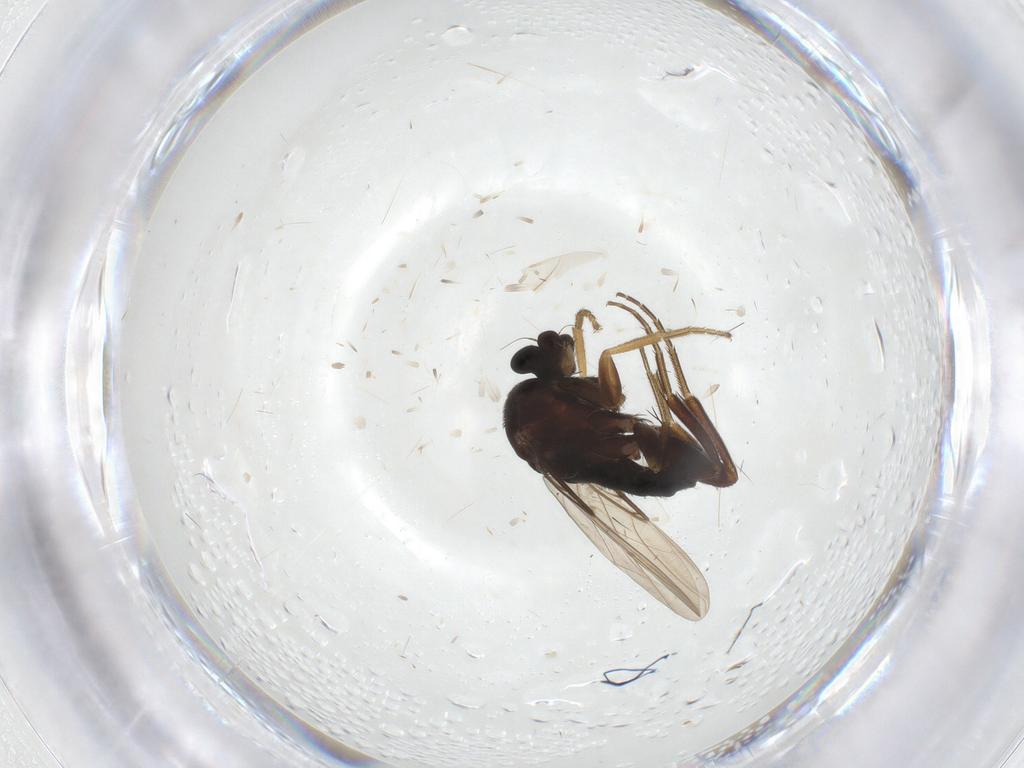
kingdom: Animalia
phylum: Arthropoda
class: Insecta
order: Diptera
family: Phoridae
